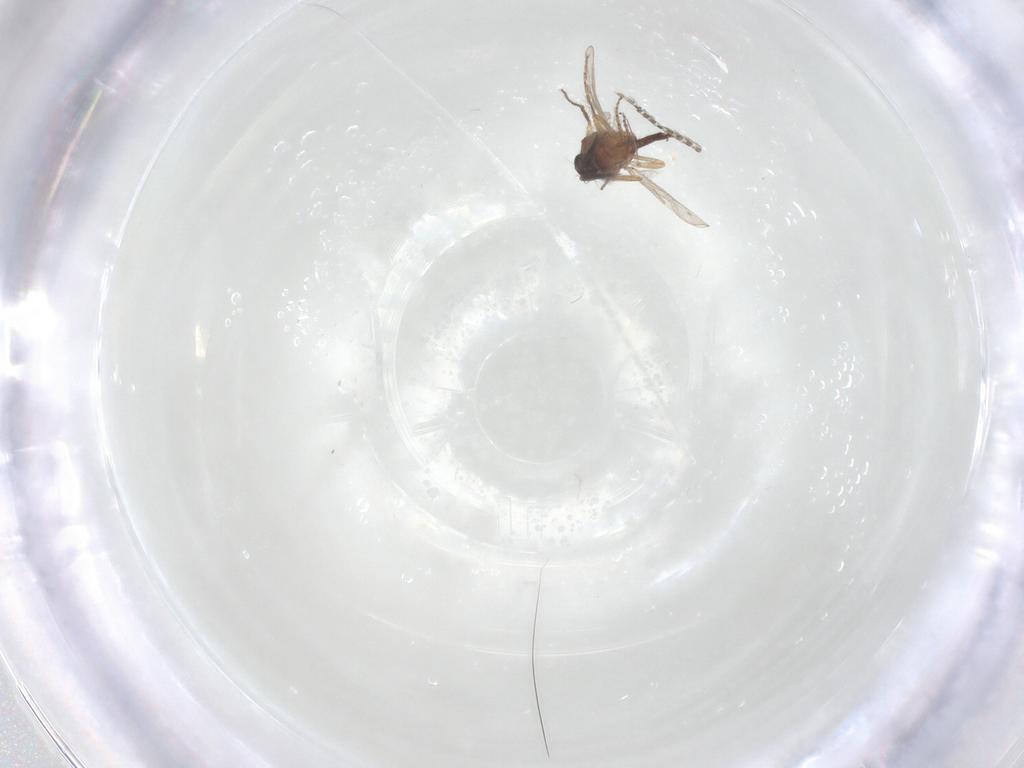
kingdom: Animalia
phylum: Arthropoda
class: Insecta
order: Diptera
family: Ceratopogonidae
